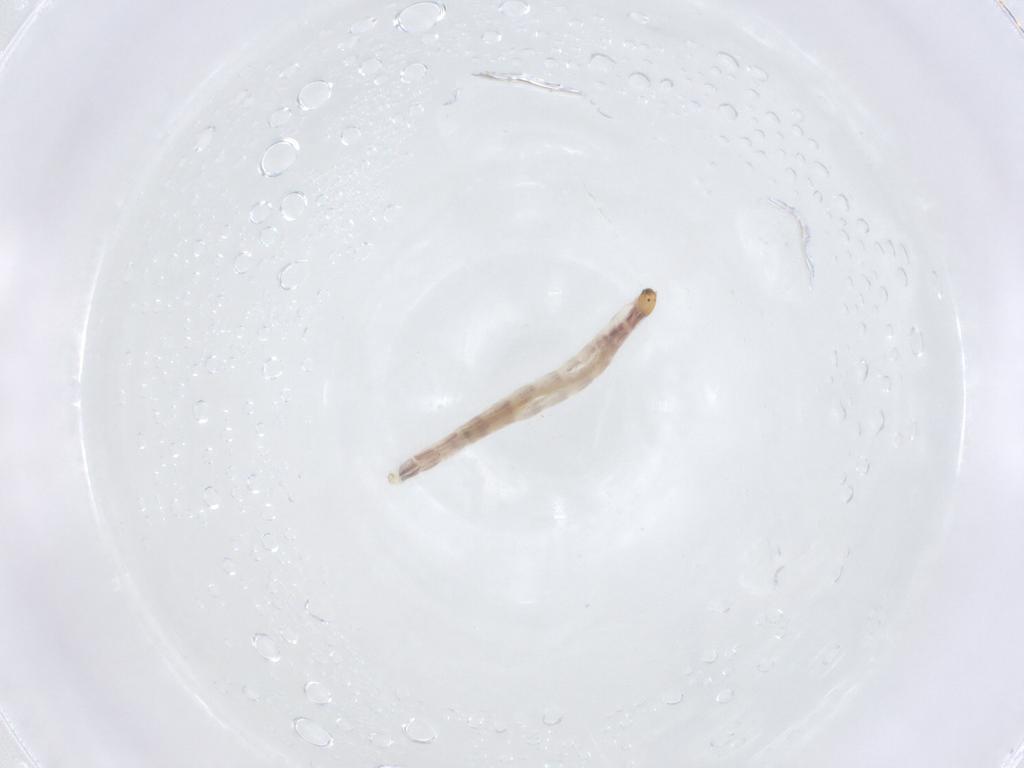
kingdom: Animalia
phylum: Arthropoda
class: Insecta
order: Diptera
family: Chironomidae
